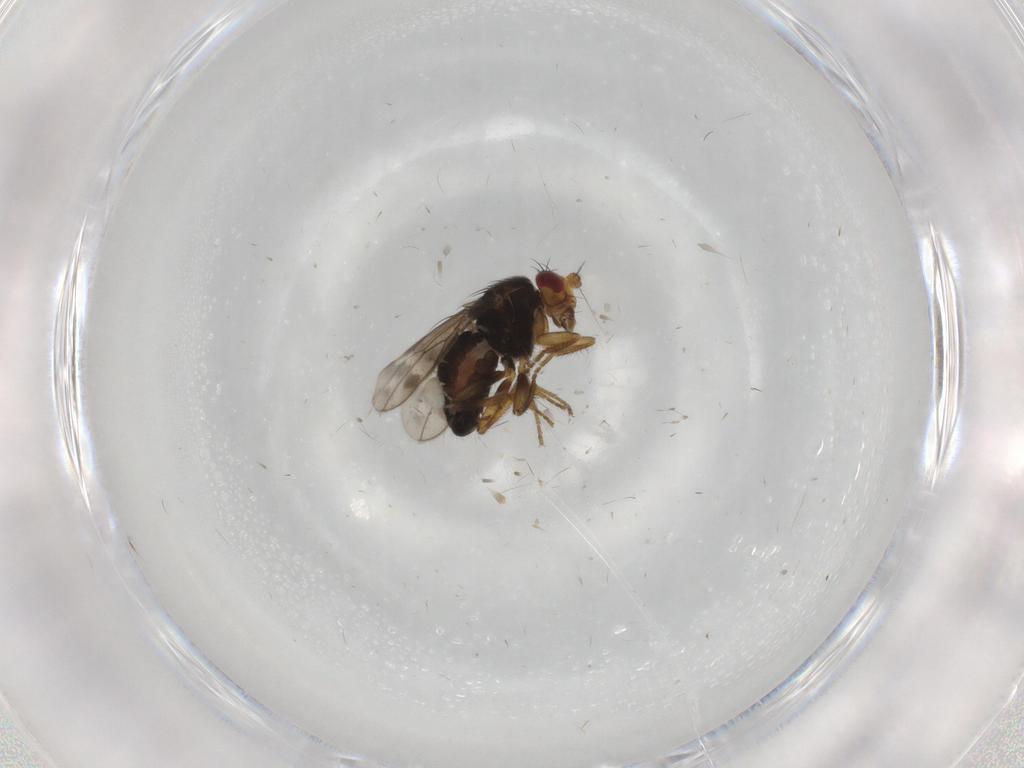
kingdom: Animalia
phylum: Arthropoda
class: Insecta
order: Diptera
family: Sphaeroceridae
